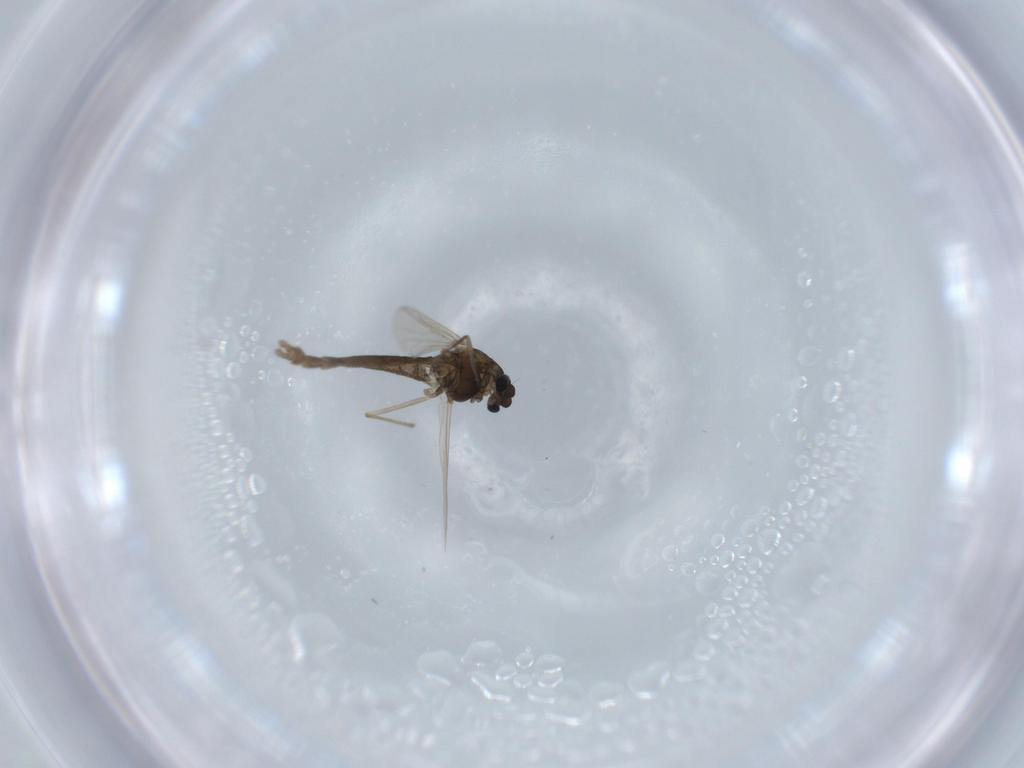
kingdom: Animalia
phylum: Arthropoda
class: Insecta
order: Diptera
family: Chironomidae
